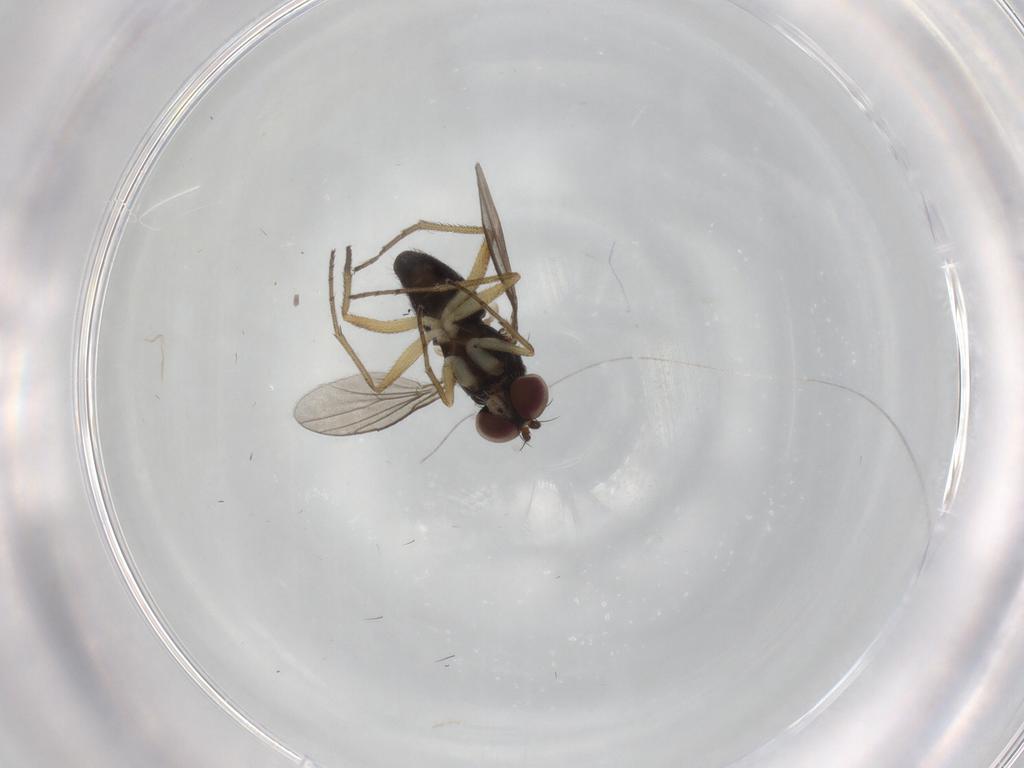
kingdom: Animalia
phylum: Arthropoda
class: Insecta
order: Diptera
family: Dolichopodidae
